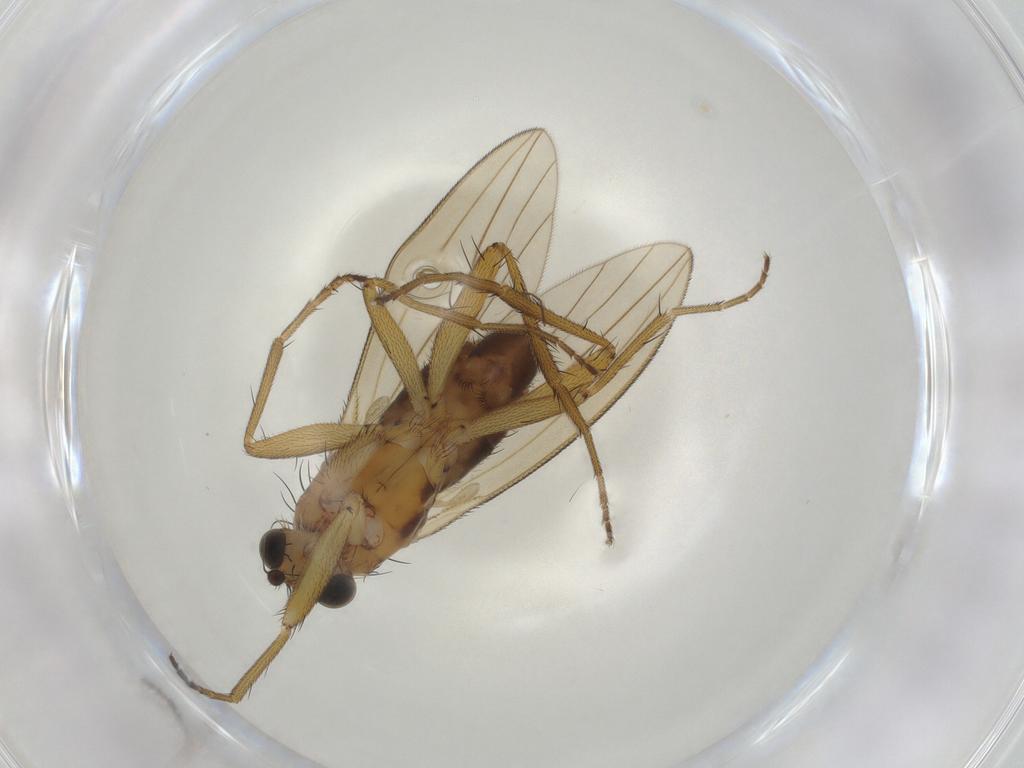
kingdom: Animalia
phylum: Arthropoda
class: Insecta
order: Diptera
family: Lonchopteridae
